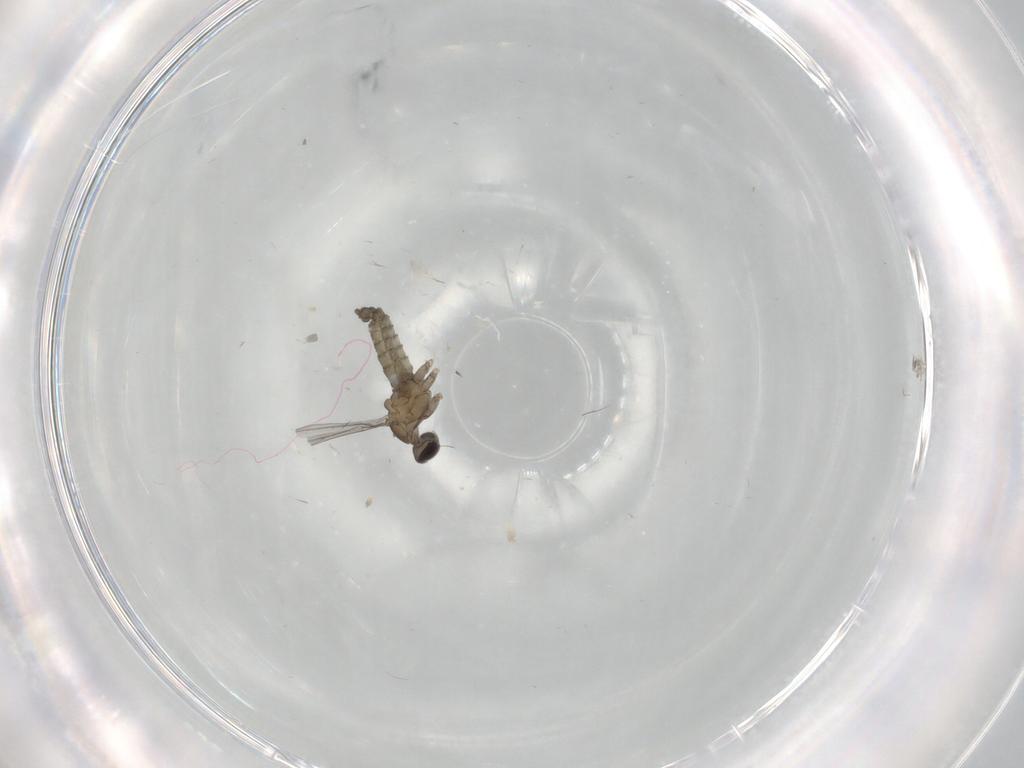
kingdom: Animalia
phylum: Arthropoda
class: Insecta
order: Diptera
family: Cecidomyiidae
